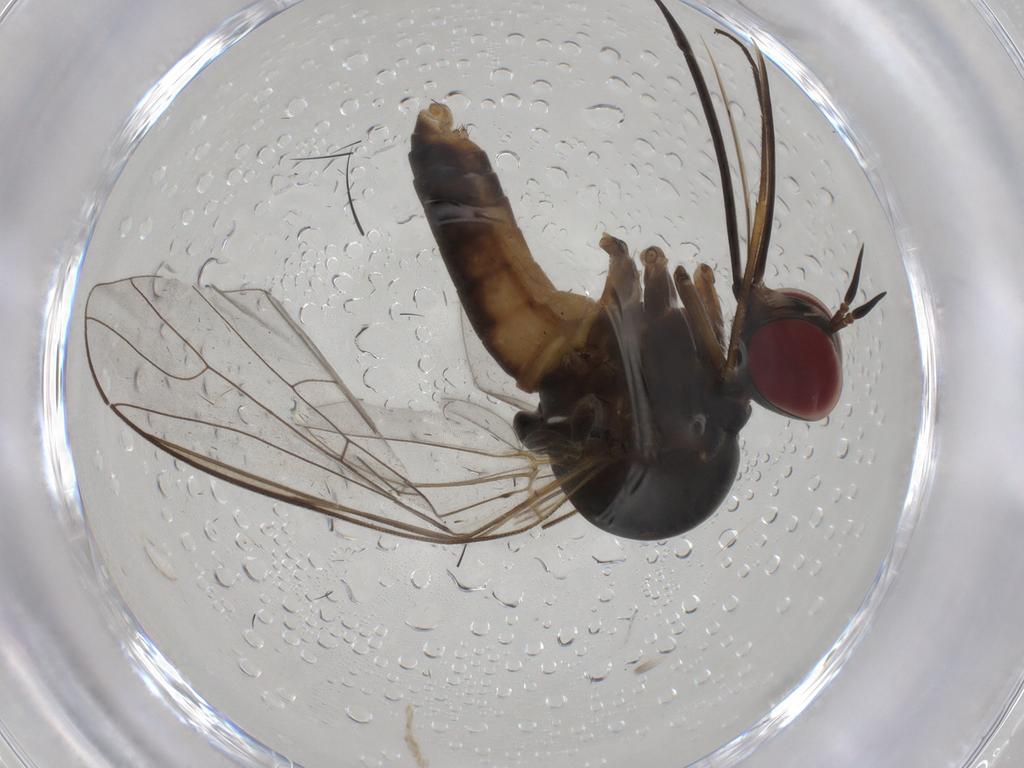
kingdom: Animalia
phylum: Arthropoda
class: Insecta
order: Diptera
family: Bombyliidae
